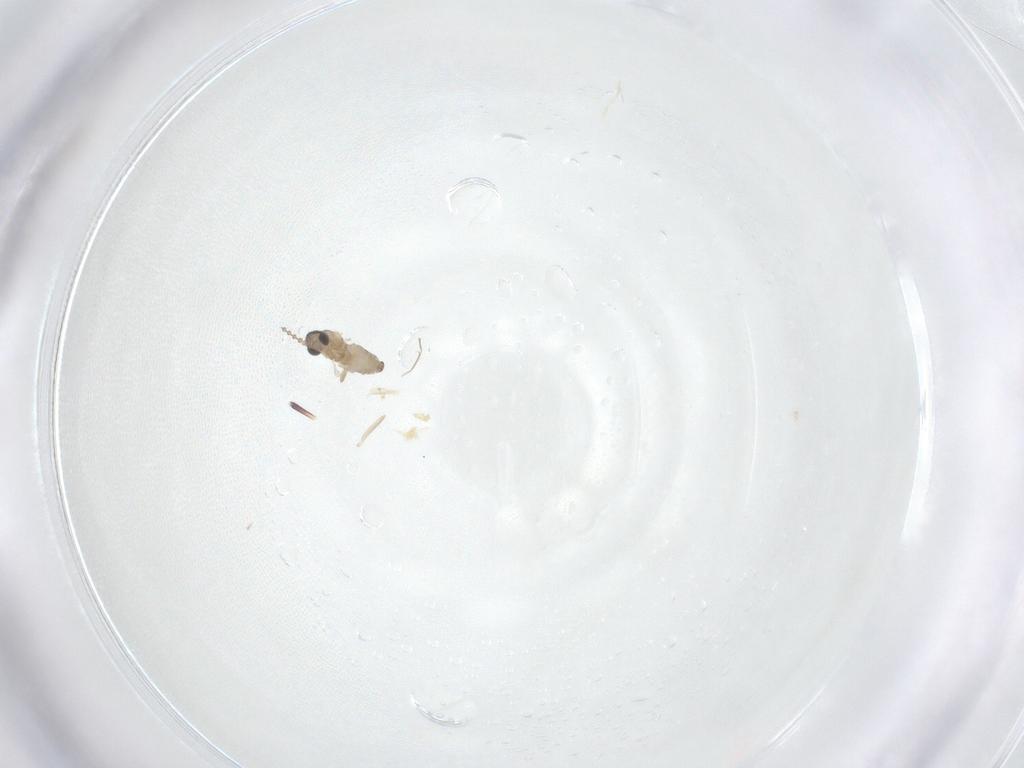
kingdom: Animalia
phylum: Arthropoda
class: Insecta
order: Diptera
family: Cecidomyiidae
